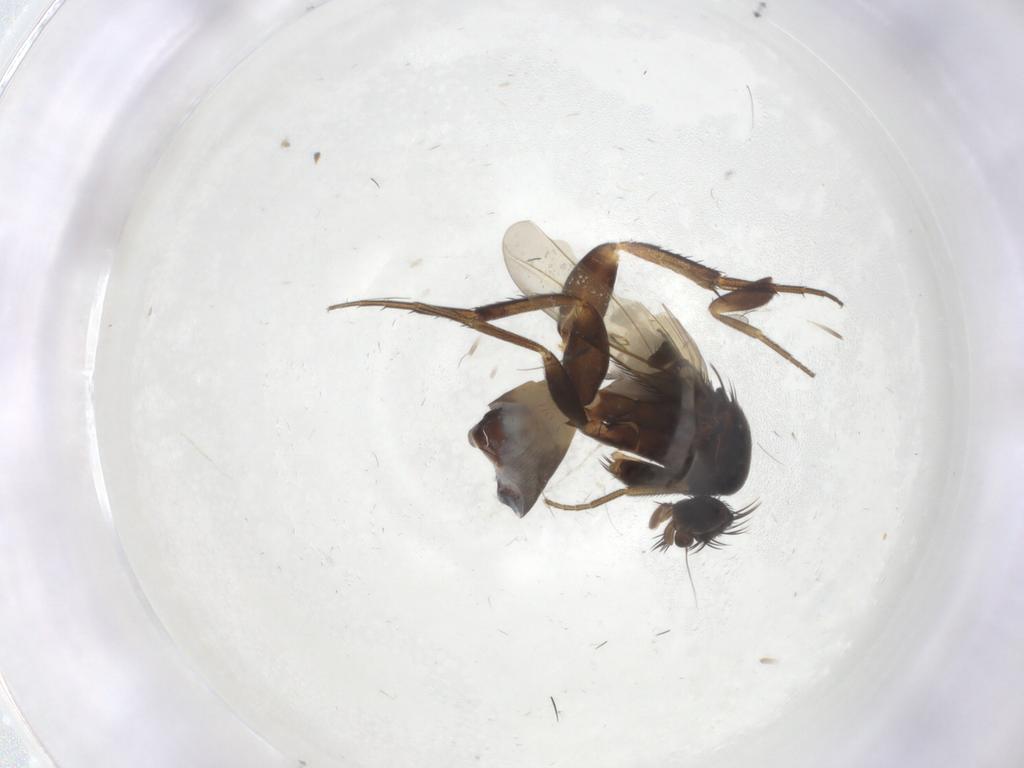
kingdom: Animalia
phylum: Arthropoda
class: Insecta
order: Diptera
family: Phoridae
